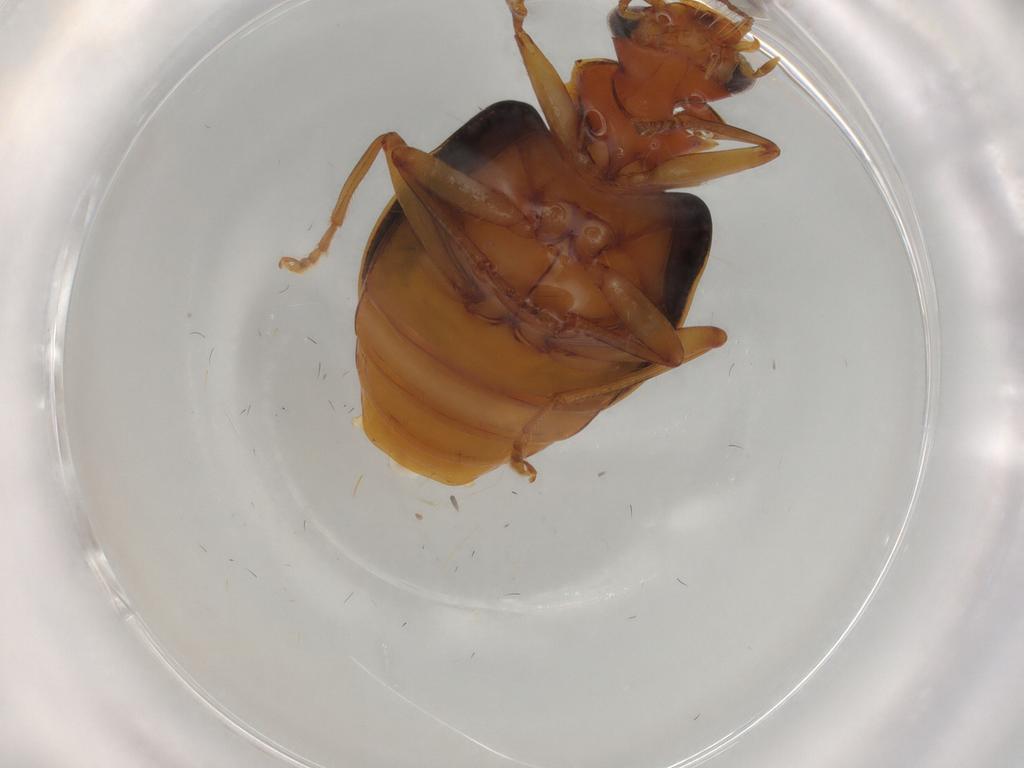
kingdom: Animalia
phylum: Arthropoda
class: Insecta
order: Coleoptera
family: Carabidae
